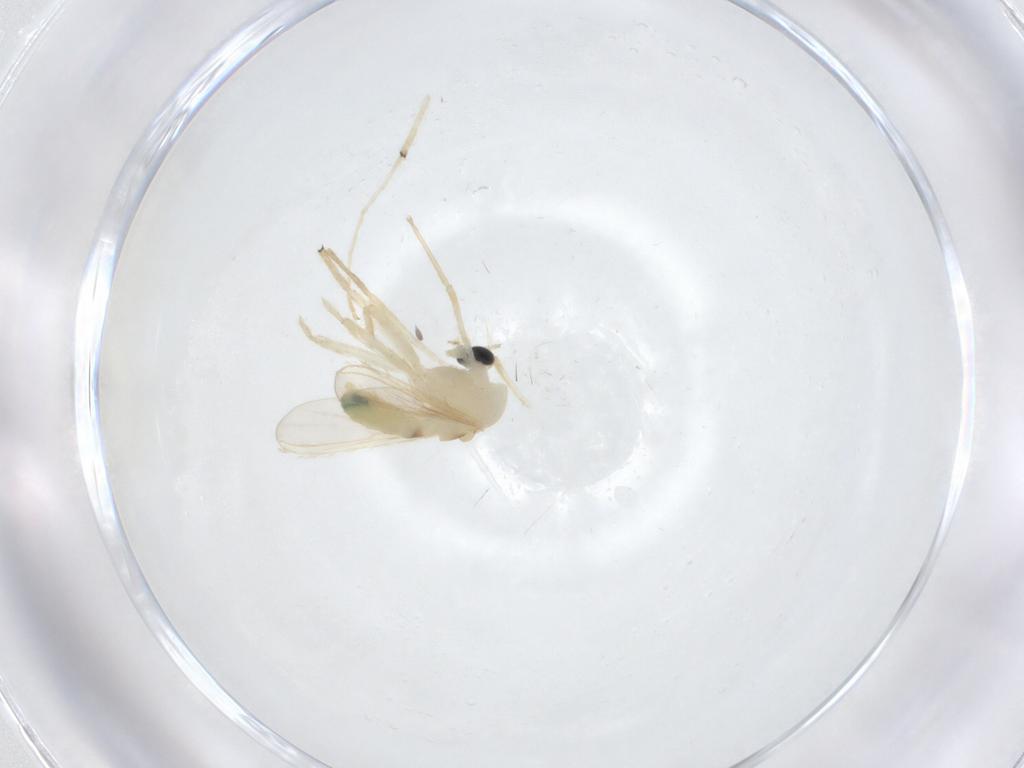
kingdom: Animalia
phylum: Arthropoda
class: Insecta
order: Diptera
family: Chironomidae
